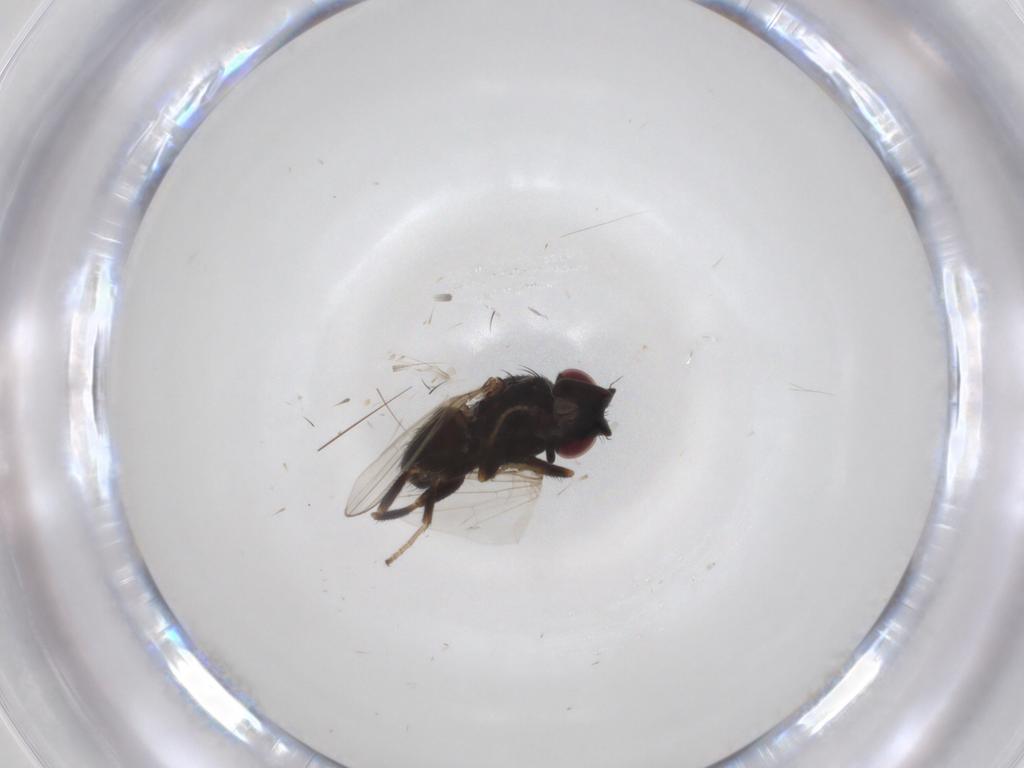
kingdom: Animalia
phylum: Arthropoda
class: Insecta
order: Diptera
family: Milichiidae
